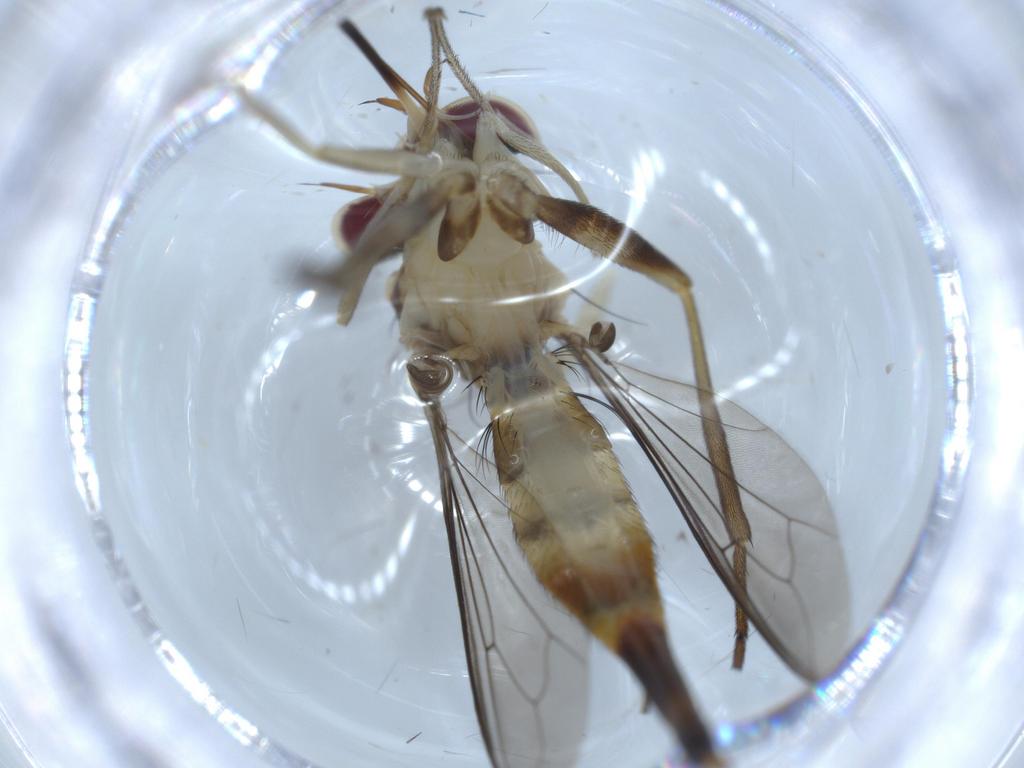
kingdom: Animalia
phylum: Arthropoda
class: Insecta
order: Diptera
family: Conopidae
